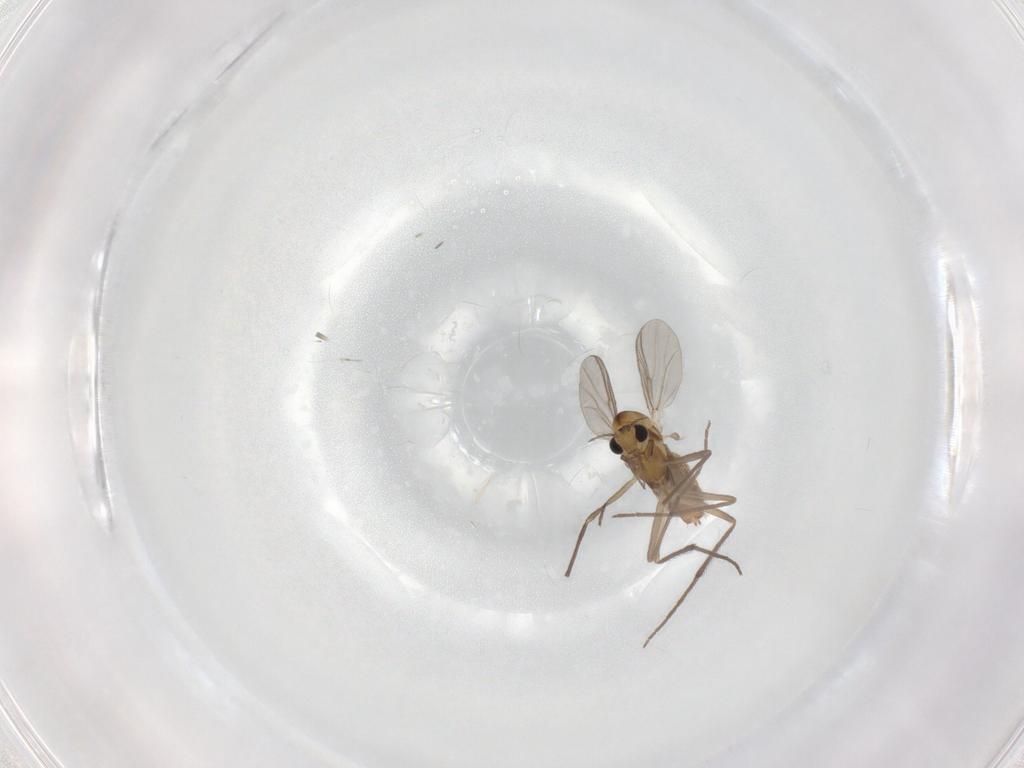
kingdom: Animalia
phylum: Arthropoda
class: Insecta
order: Diptera
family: Chironomidae
